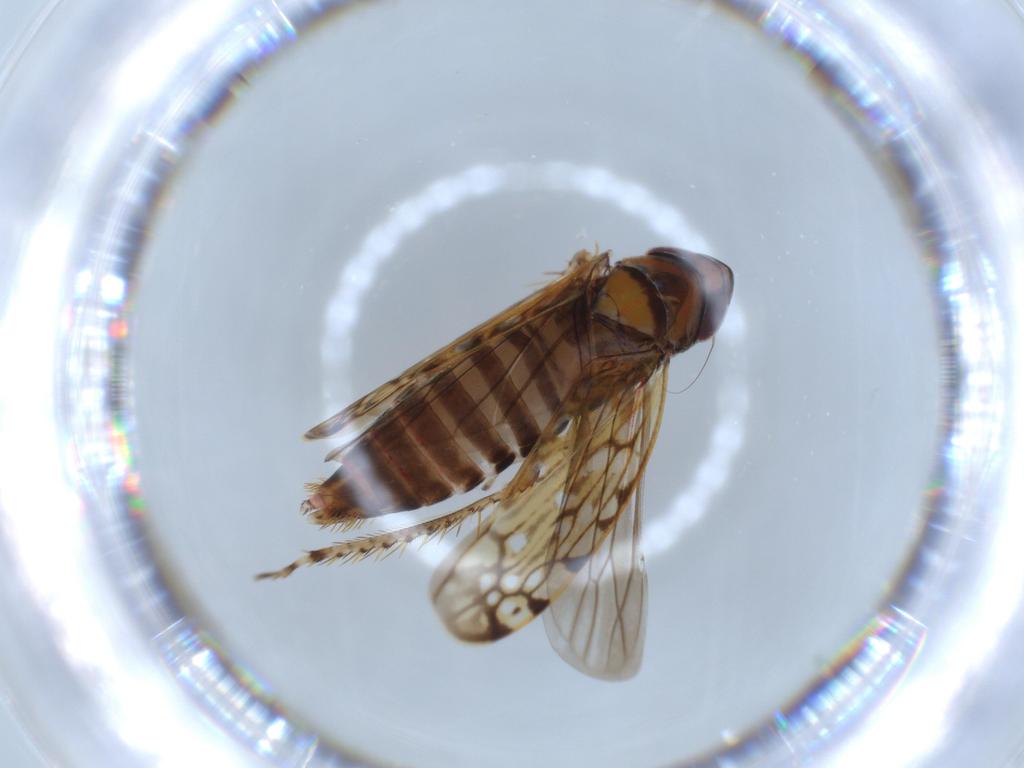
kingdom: Animalia
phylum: Arthropoda
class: Insecta
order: Hemiptera
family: Cicadellidae
